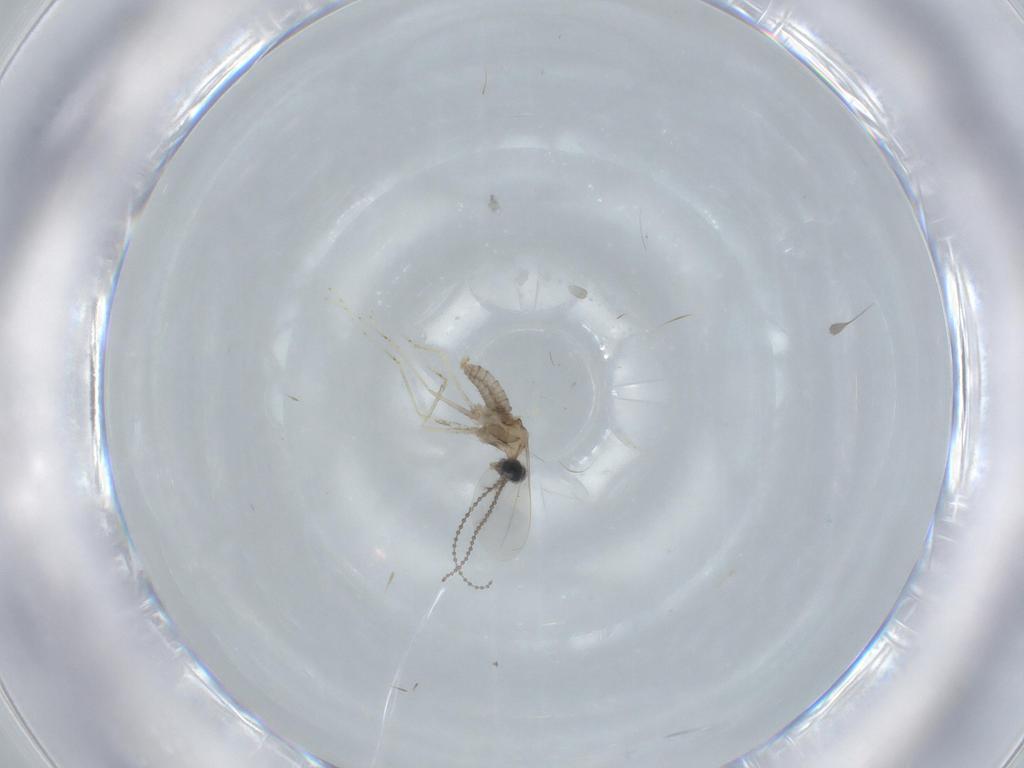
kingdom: Animalia
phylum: Arthropoda
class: Insecta
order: Diptera
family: Cecidomyiidae
